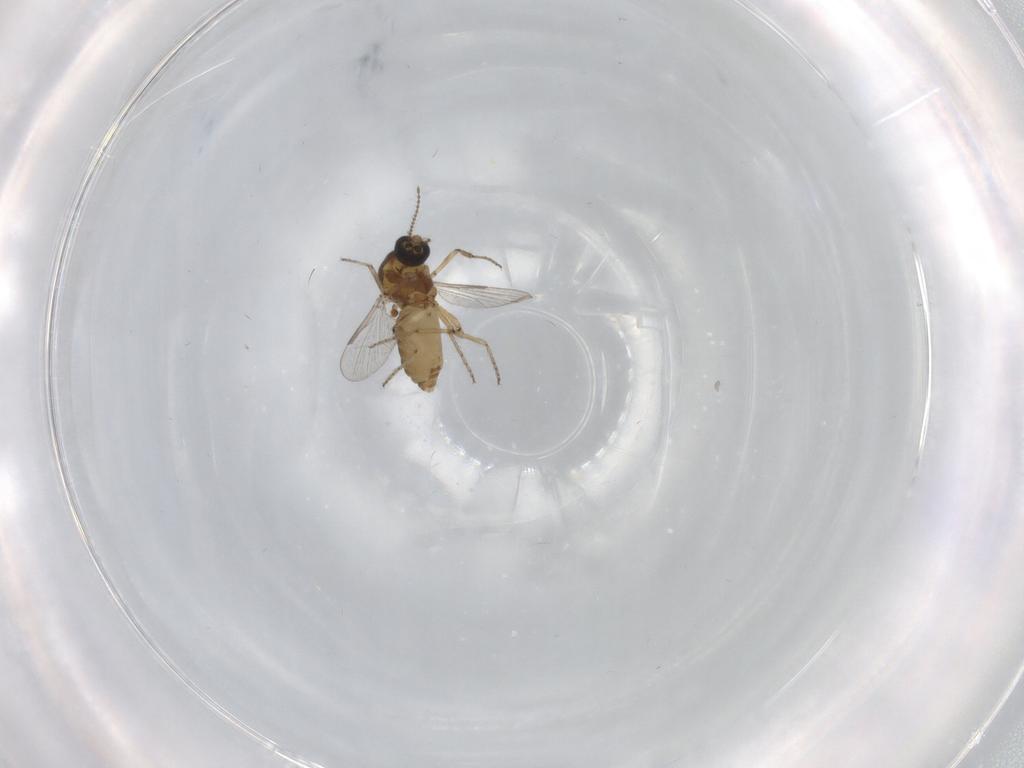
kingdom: Animalia
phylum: Arthropoda
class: Insecta
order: Diptera
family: Ceratopogonidae
